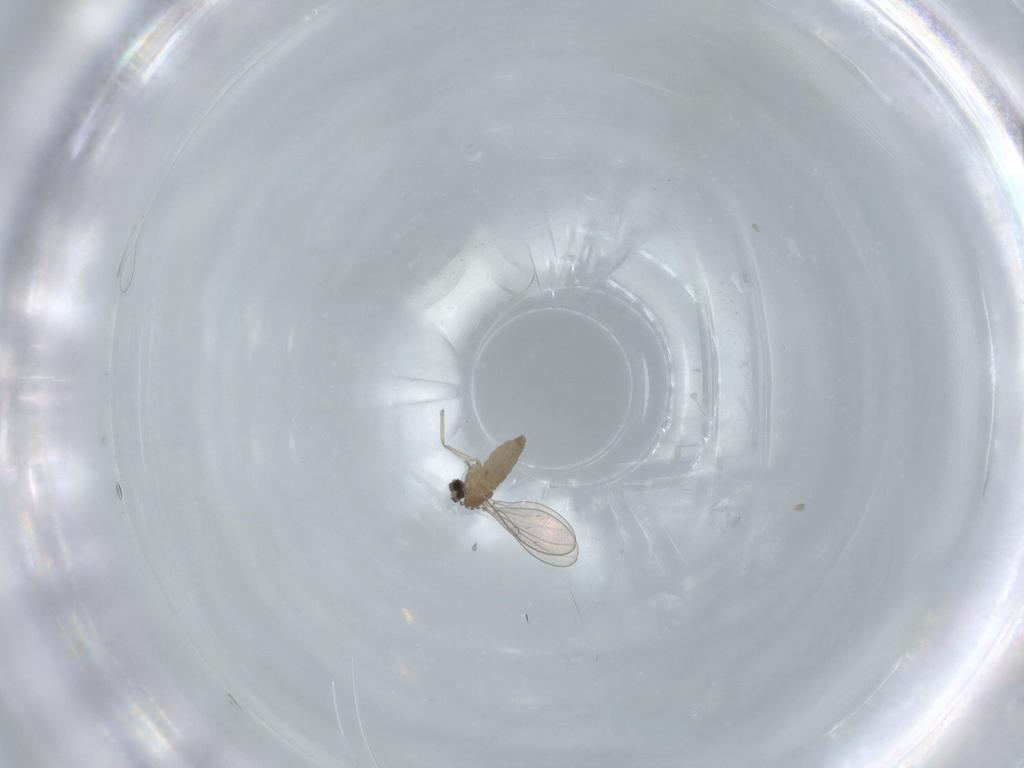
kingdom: Animalia
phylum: Arthropoda
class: Insecta
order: Diptera
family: Cecidomyiidae
